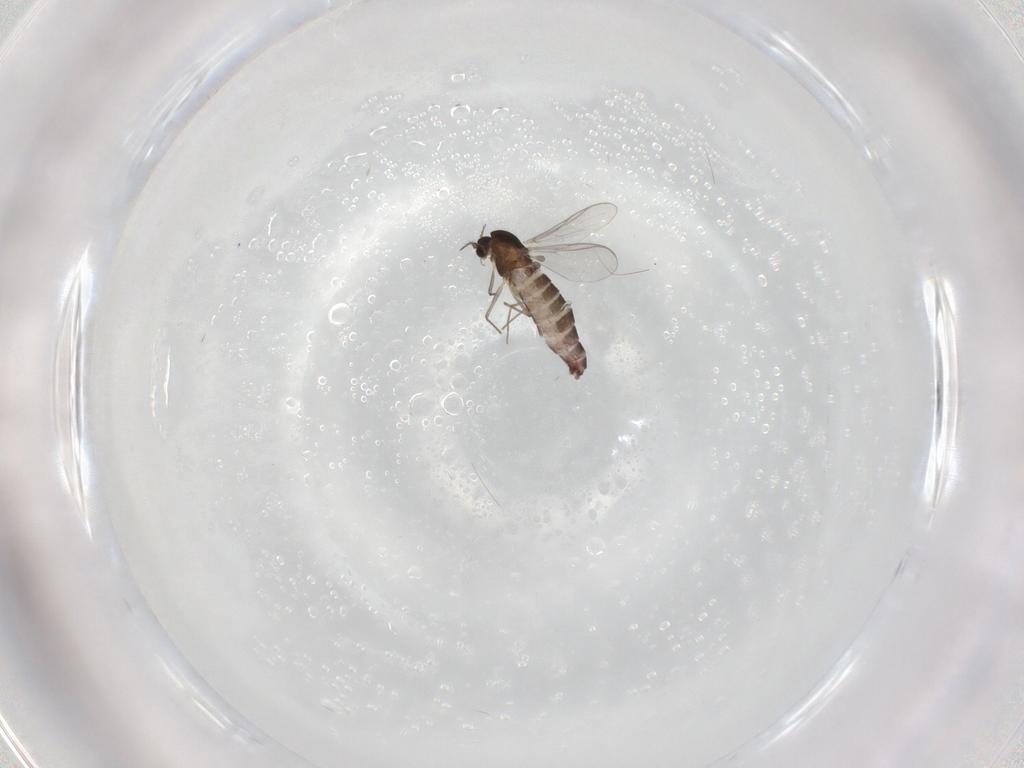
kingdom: Animalia
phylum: Arthropoda
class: Insecta
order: Diptera
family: Chironomidae
